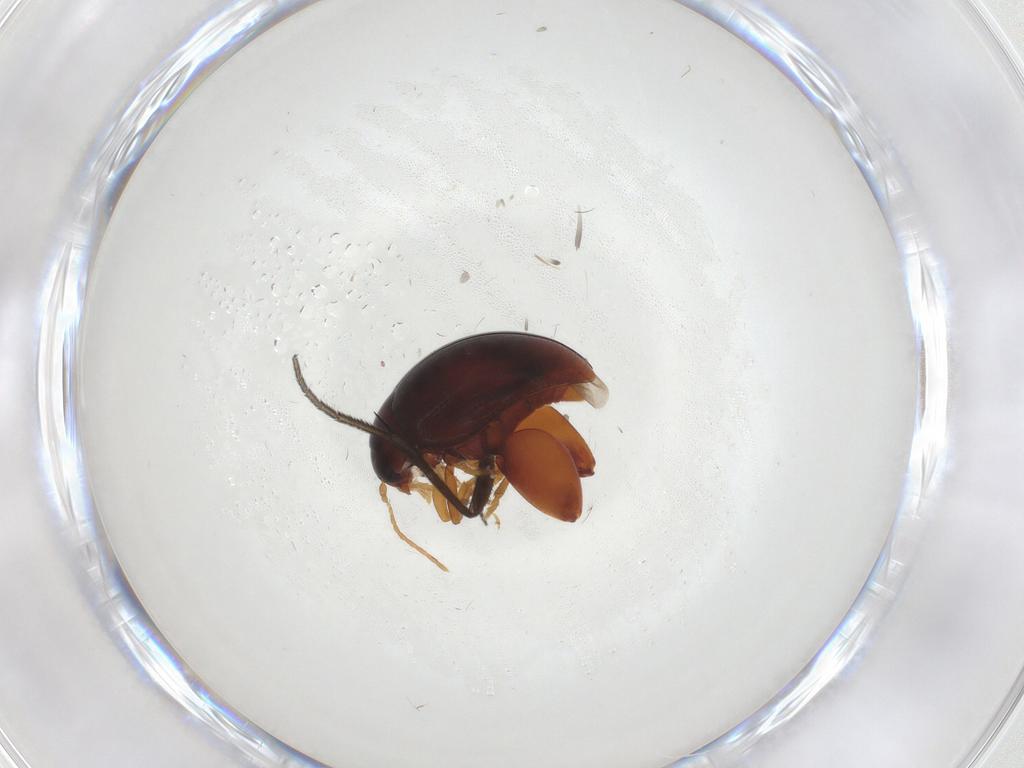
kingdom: Animalia
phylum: Arthropoda
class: Insecta
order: Coleoptera
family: Chrysomelidae
